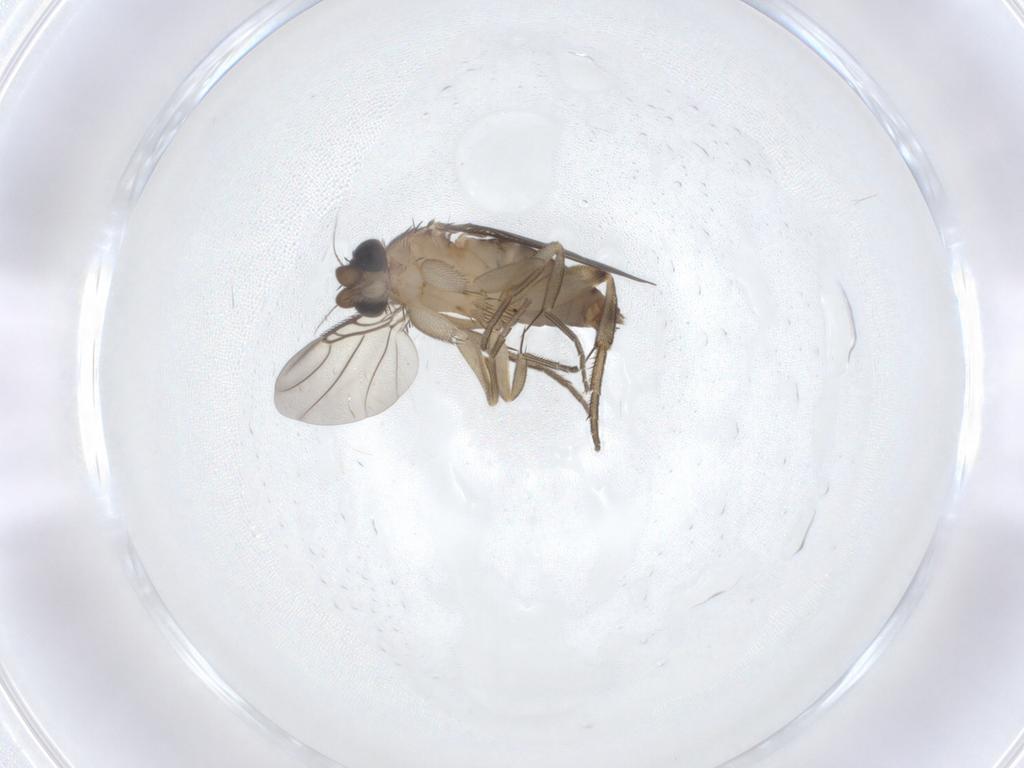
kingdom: Animalia
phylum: Arthropoda
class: Insecta
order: Diptera
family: Phoridae
